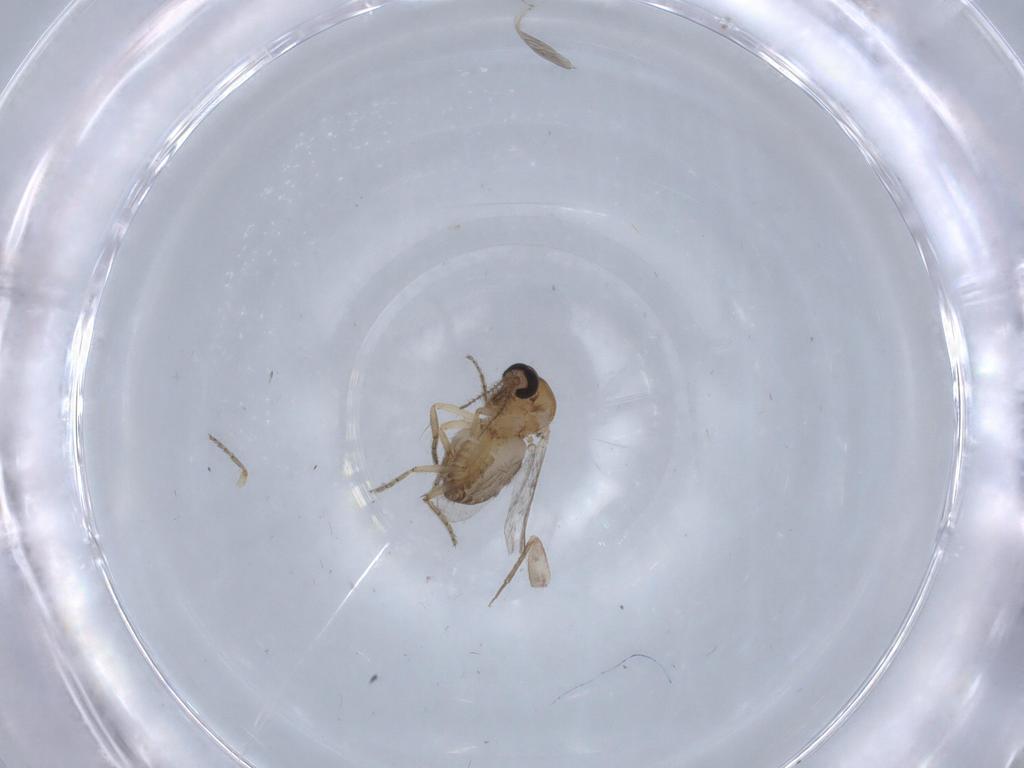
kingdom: Animalia
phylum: Arthropoda
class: Insecta
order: Diptera
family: Ceratopogonidae
